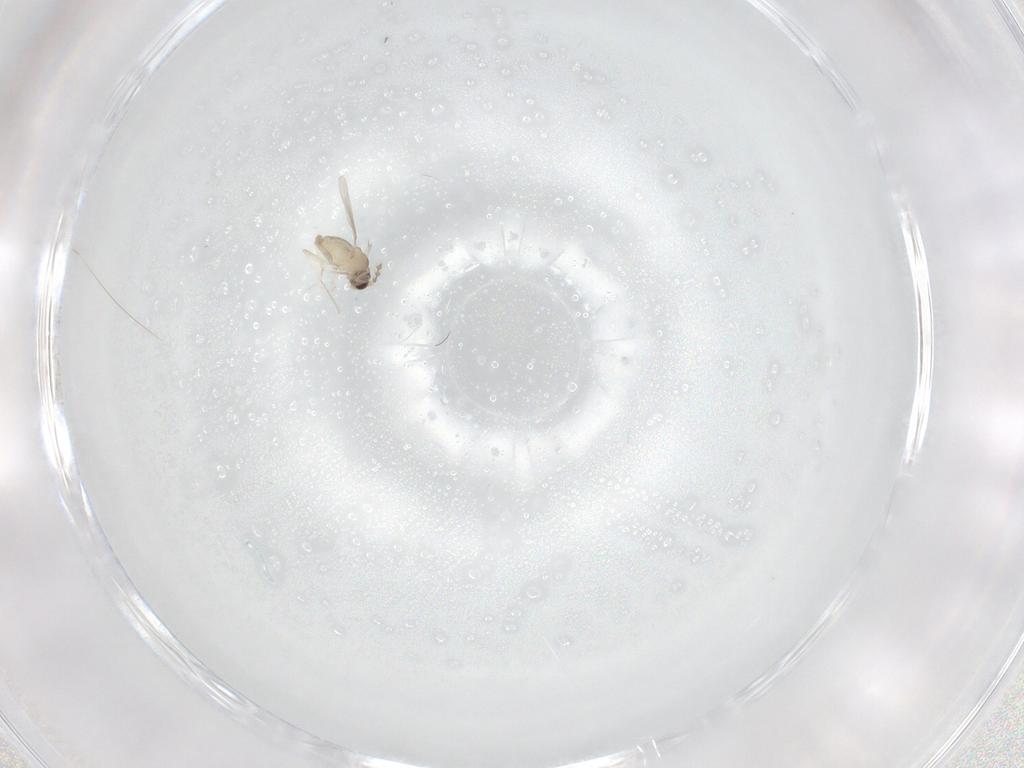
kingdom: Animalia
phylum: Arthropoda
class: Insecta
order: Diptera
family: Cecidomyiidae
